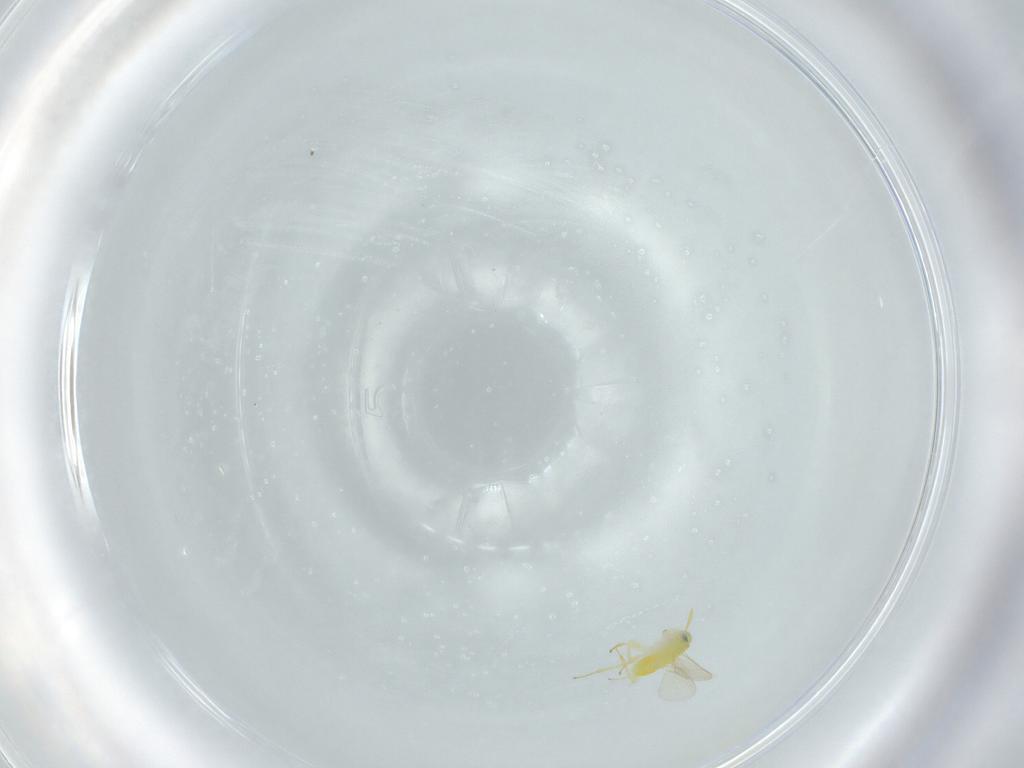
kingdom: Animalia
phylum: Arthropoda
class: Insecta
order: Hymenoptera
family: Aphelinidae
